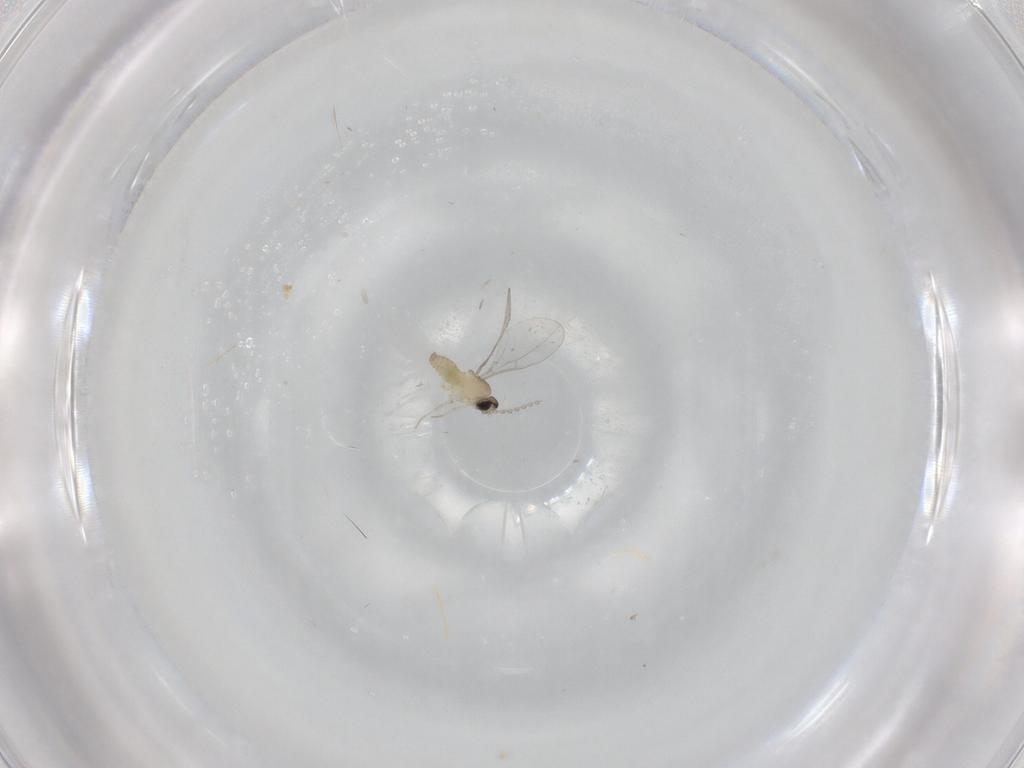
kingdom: Animalia
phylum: Arthropoda
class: Insecta
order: Diptera
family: Cecidomyiidae
